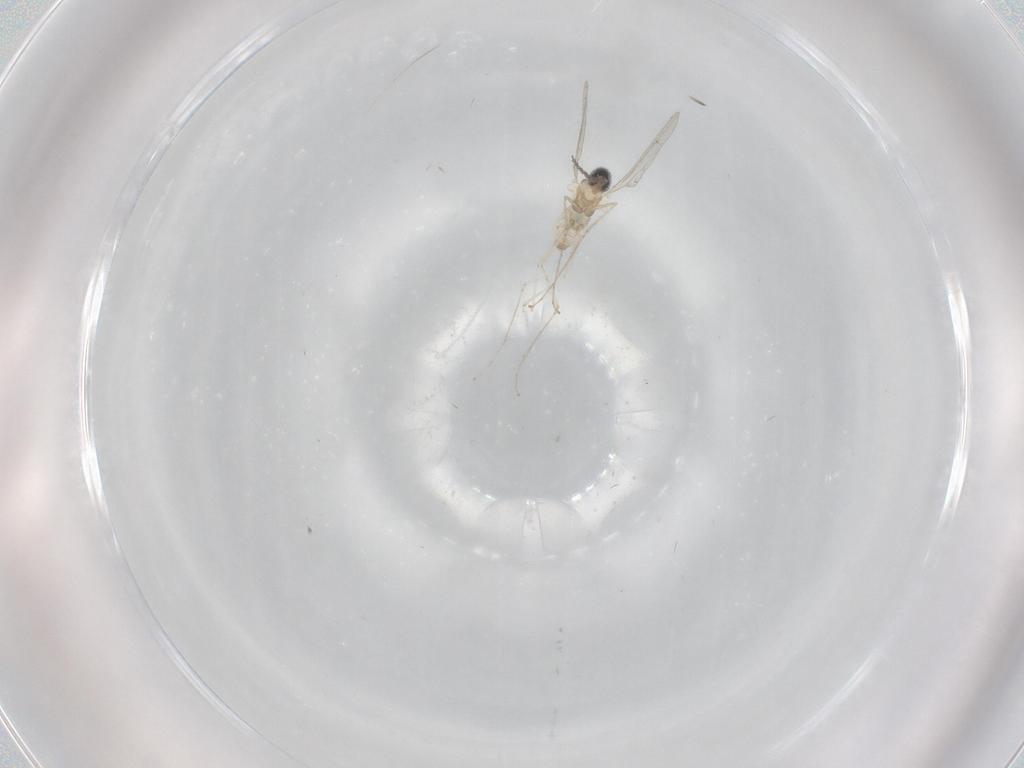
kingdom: Animalia
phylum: Arthropoda
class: Insecta
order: Diptera
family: Cecidomyiidae
